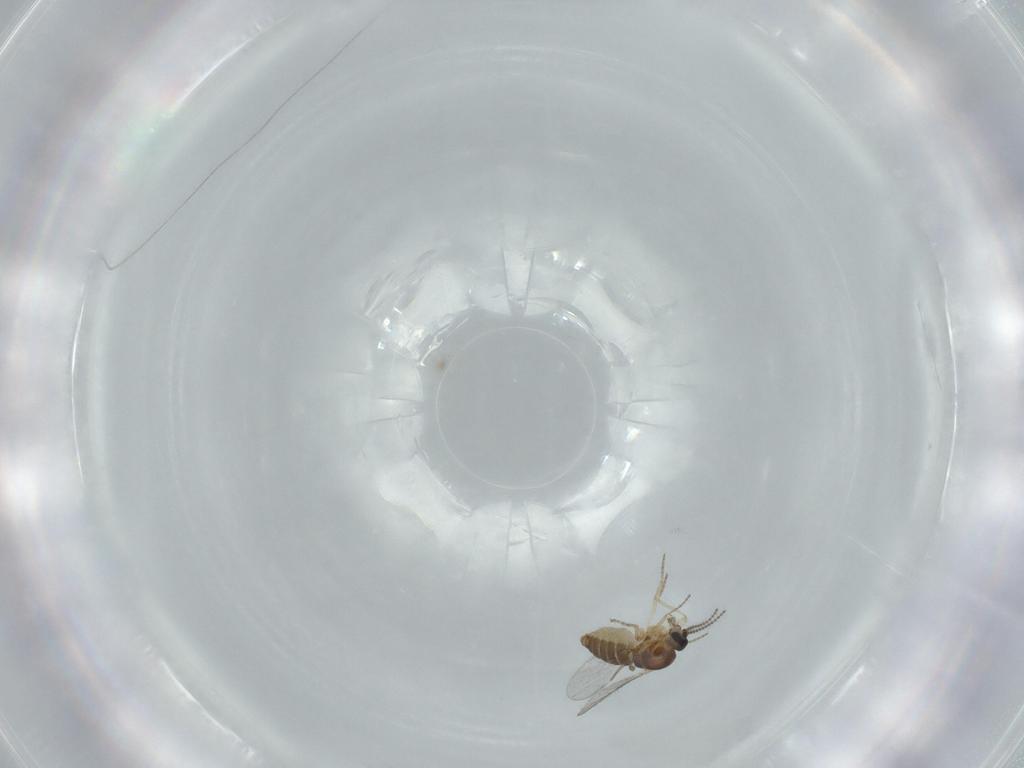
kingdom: Animalia
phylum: Arthropoda
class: Insecta
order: Diptera
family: Ceratopogonidae
